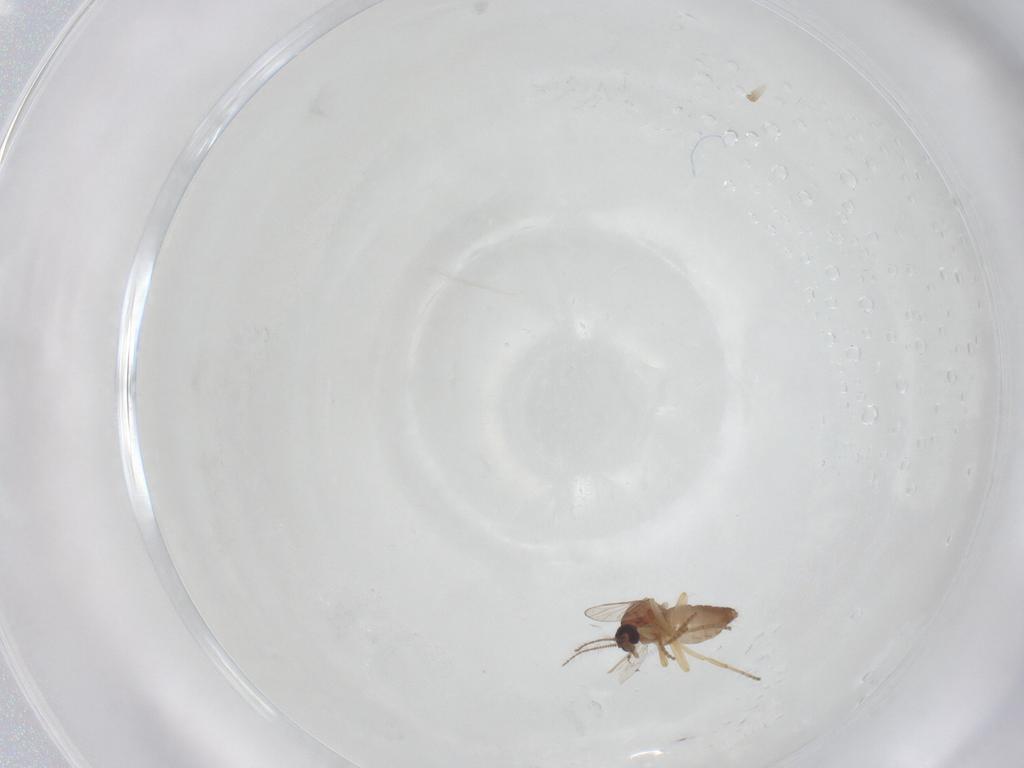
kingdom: Animalia
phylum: Arthropoda
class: Insecta
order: Diptera
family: Ceratopogonidae
